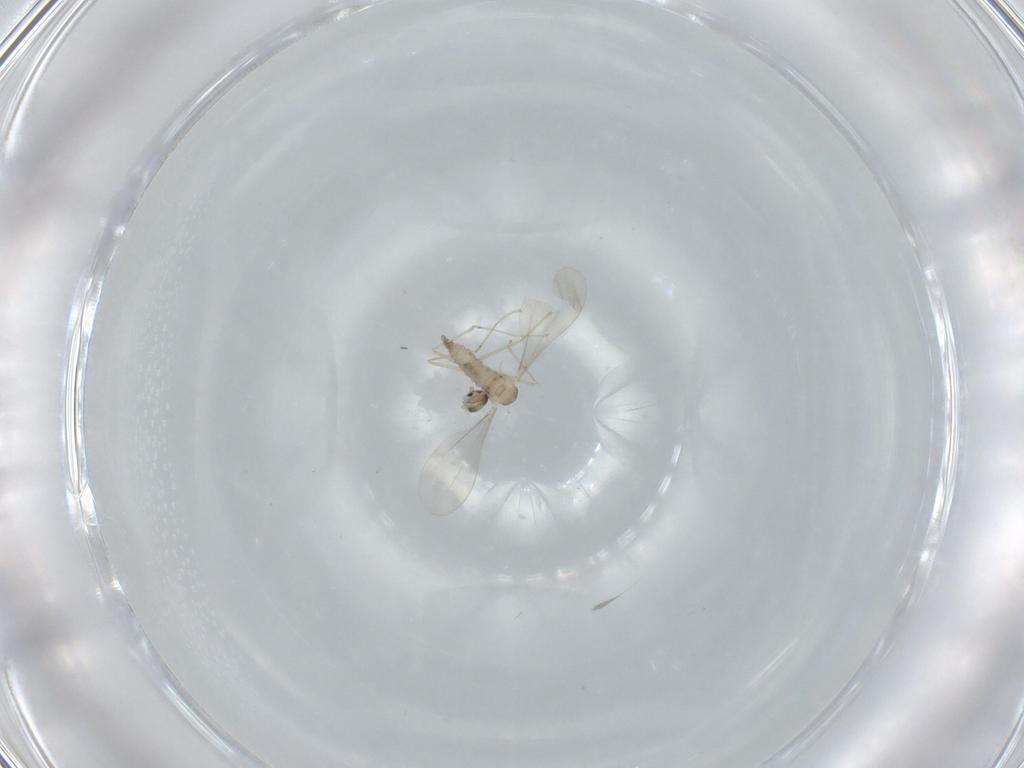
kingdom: Animalia
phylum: Arthropoda
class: Insecta
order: Diptera
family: Cecidomyiidae
